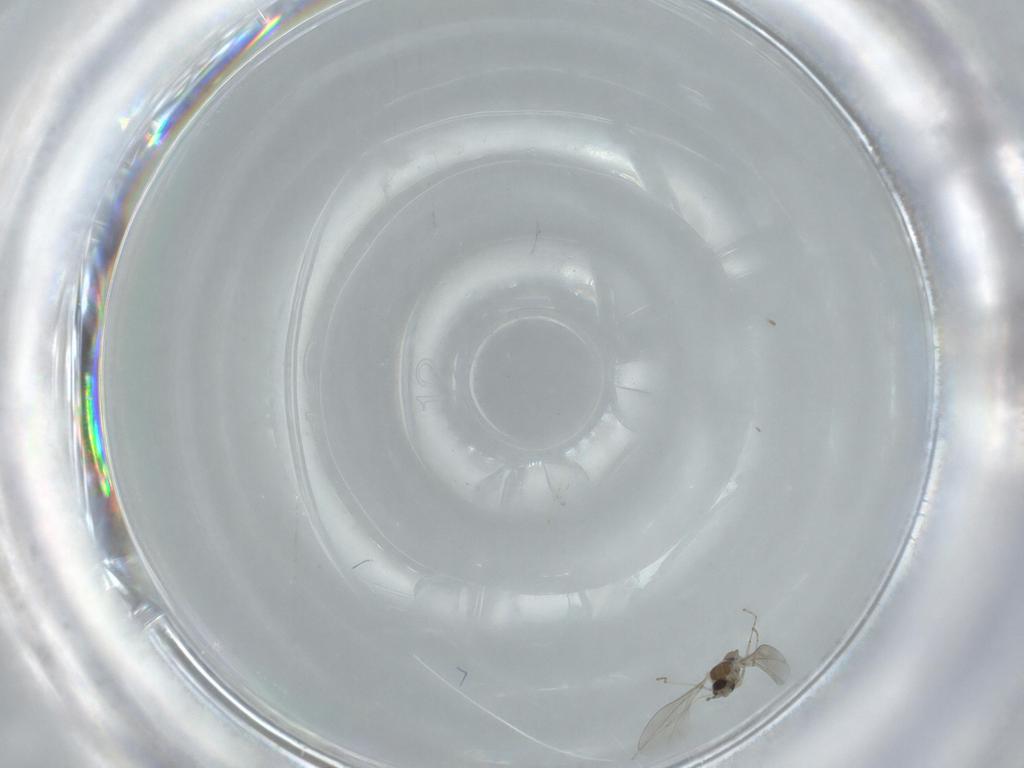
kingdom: Animalia
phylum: Arthropoda
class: Insecta
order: Diptera
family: Cecidomyiidae
